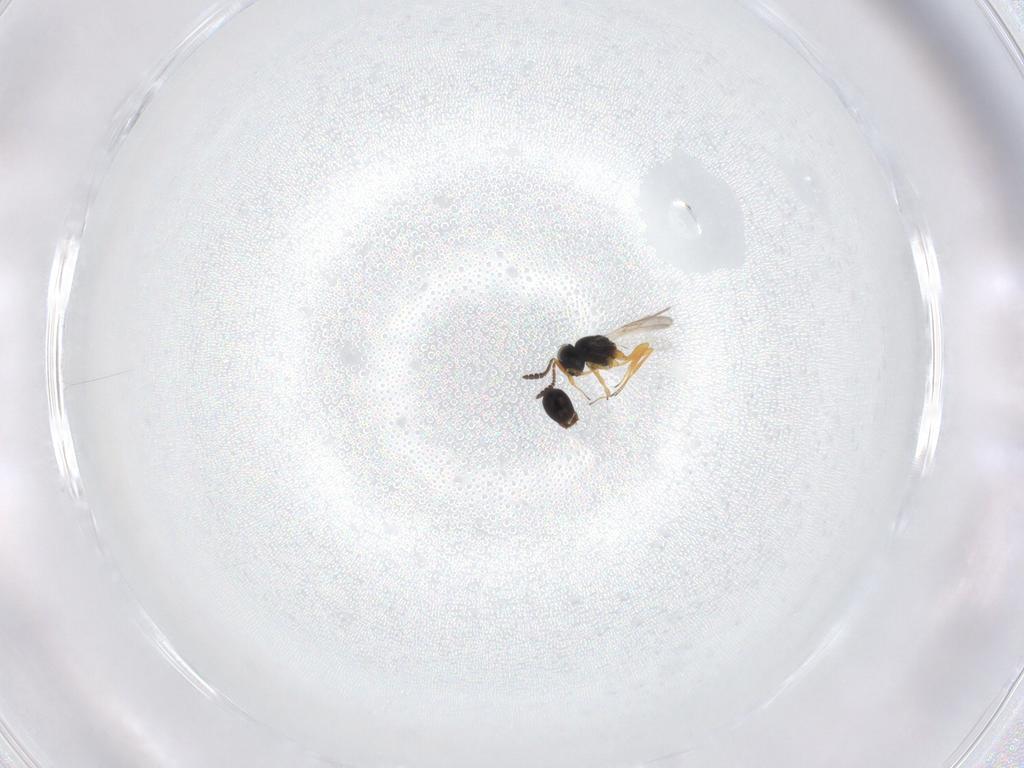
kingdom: Animalia
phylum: Arthropoda
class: Insecta
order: Hymenoptera
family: Scelionidae
